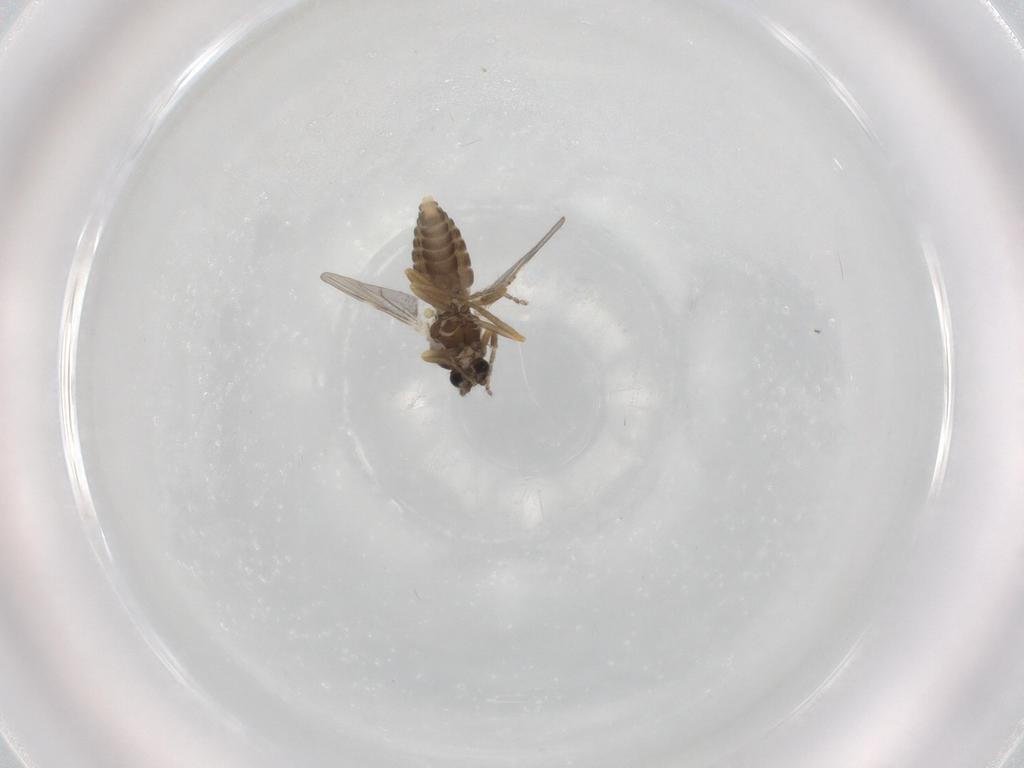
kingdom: Animalia
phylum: Arthropoda
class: Insecta
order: Diptera
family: Ceratopogonidae
